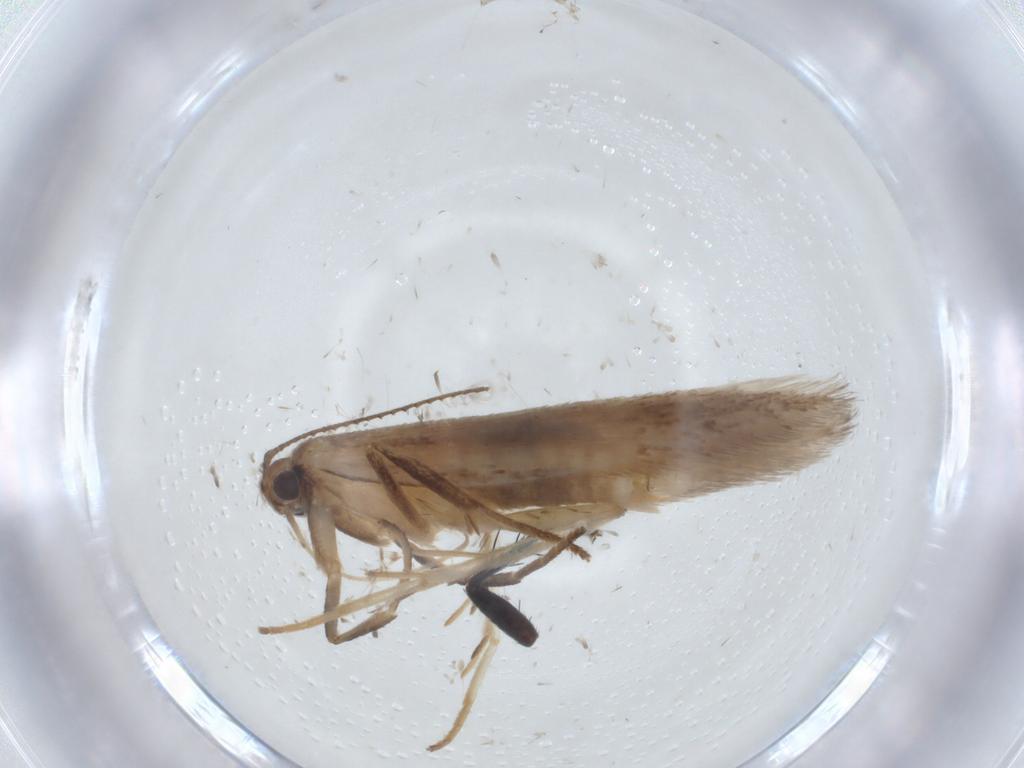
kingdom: Animalia
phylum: Arthropoda
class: Insecta
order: Lepidoptera
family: Gelechiidae
